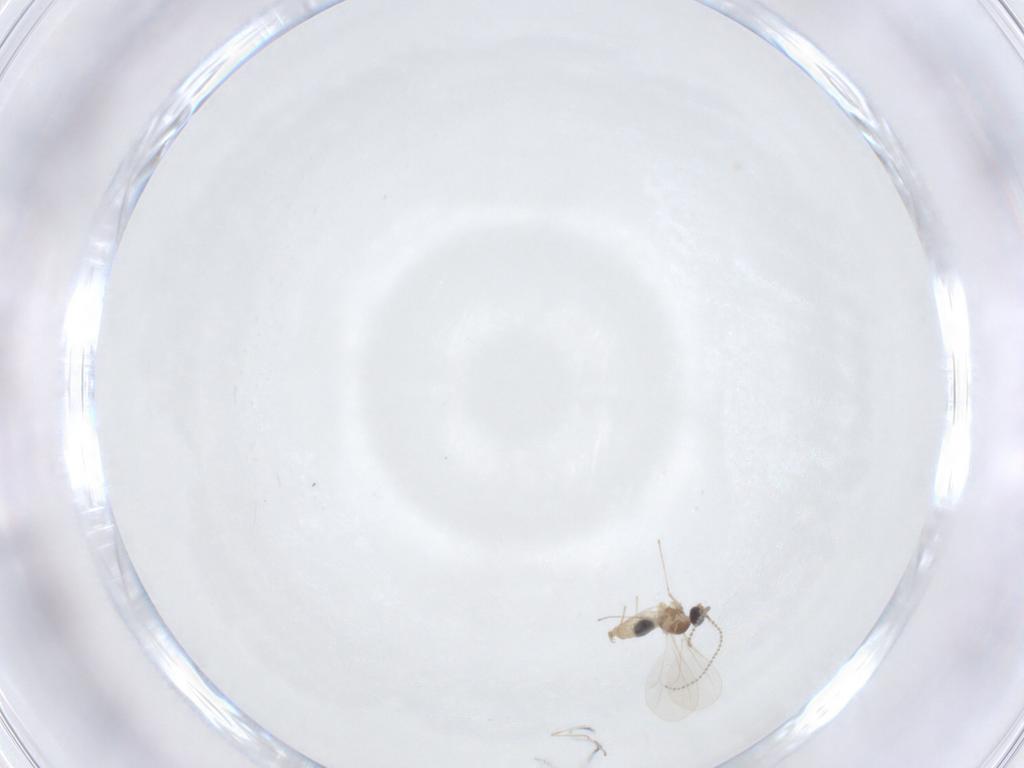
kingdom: Animalia
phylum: Arthropoda
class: Insecta
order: Diptera
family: Cecidomyiidae
